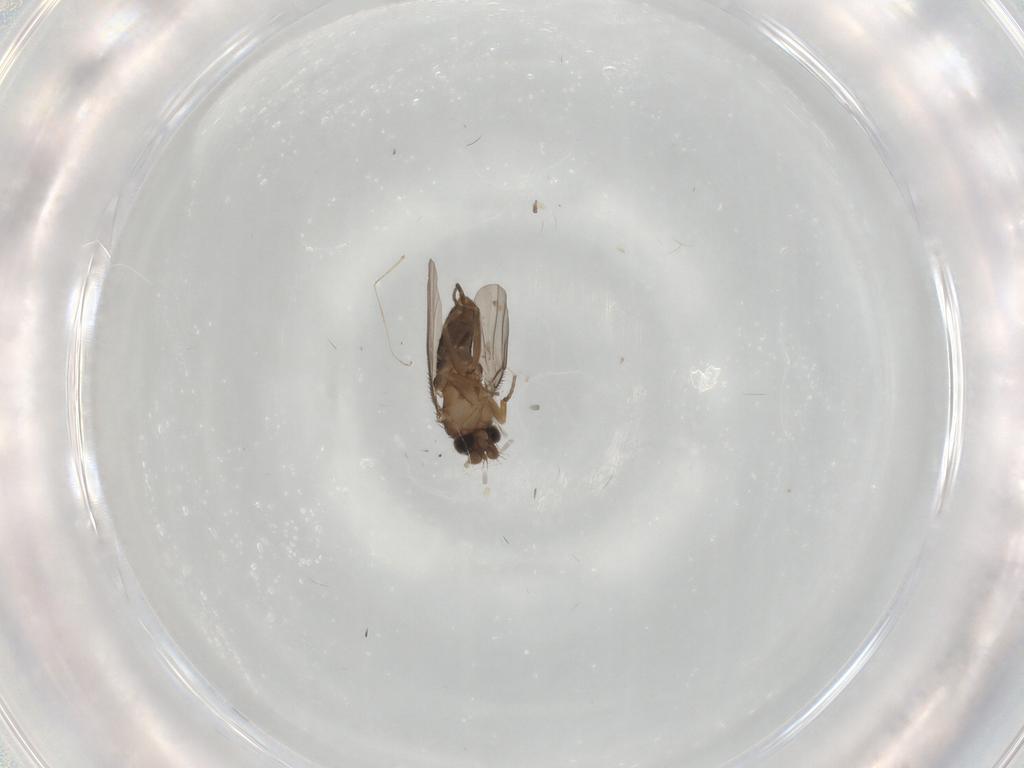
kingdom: Animalia
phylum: Arthropoda
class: Insecta
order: Diptera
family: Phoridae
